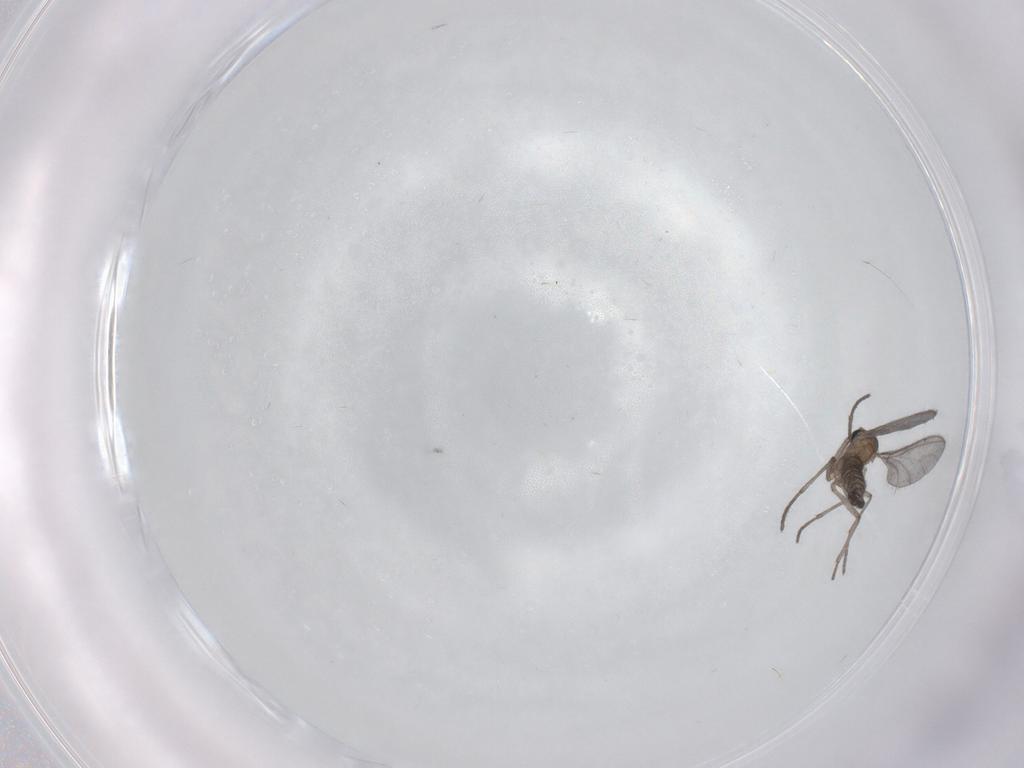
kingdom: Animalia
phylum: Arthropoda
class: Insecta
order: Diptera
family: Sciaridae
